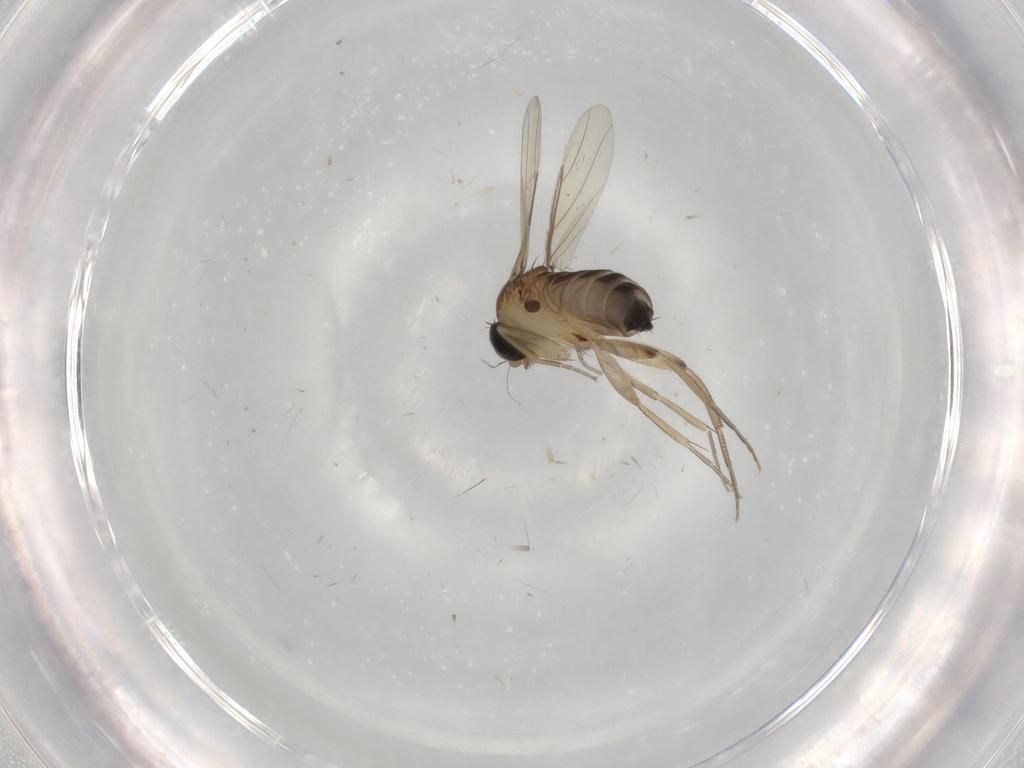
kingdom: Animalia
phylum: Arthropoda
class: Insecta
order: Diptera
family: Phoridae
